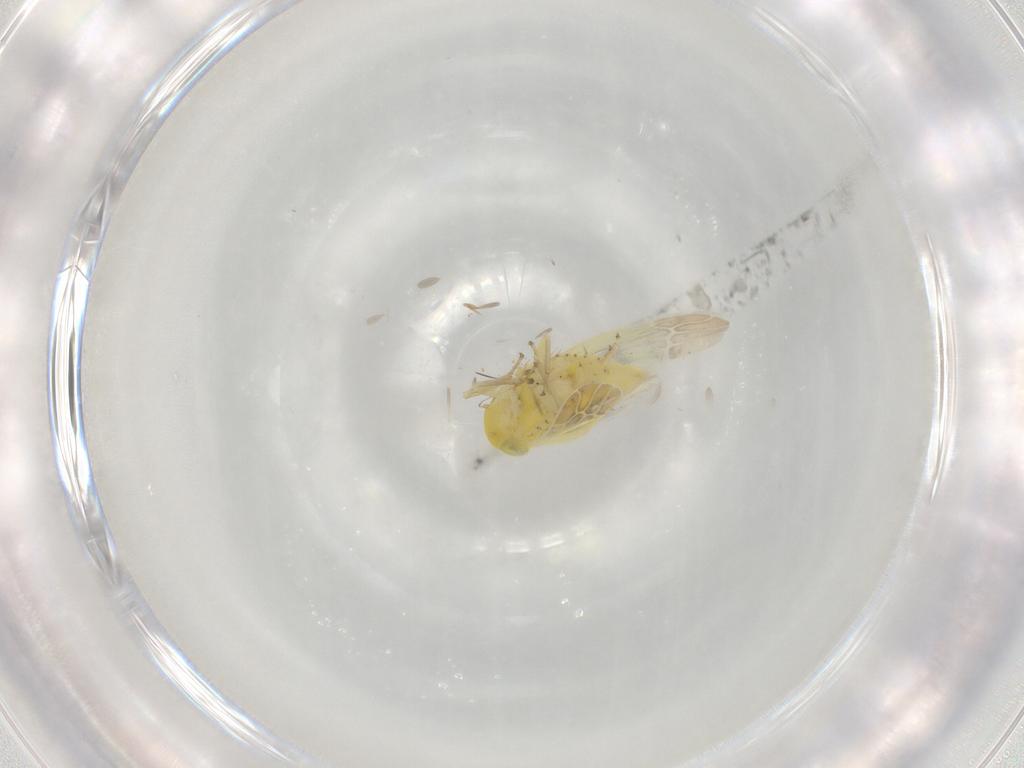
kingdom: Animalia
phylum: Arthropoda
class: Insecta
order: Hemiptera
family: Cicadellidae
